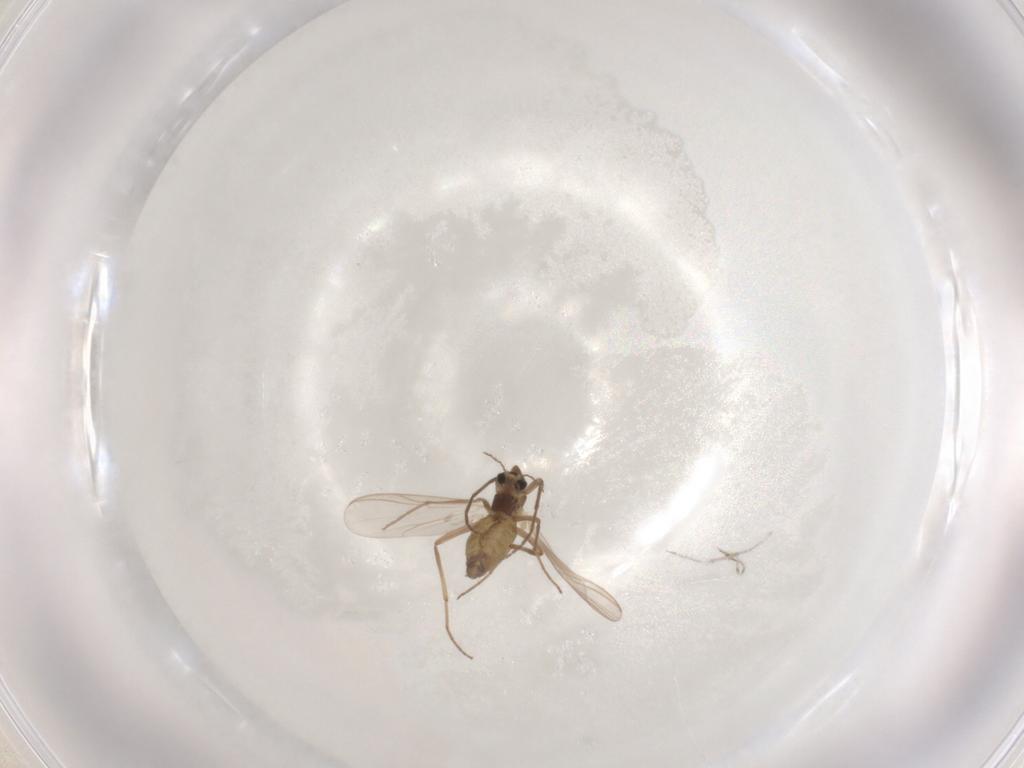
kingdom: Animalia
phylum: Arthropoda
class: Insecta
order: Diptera
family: Chironomidae
